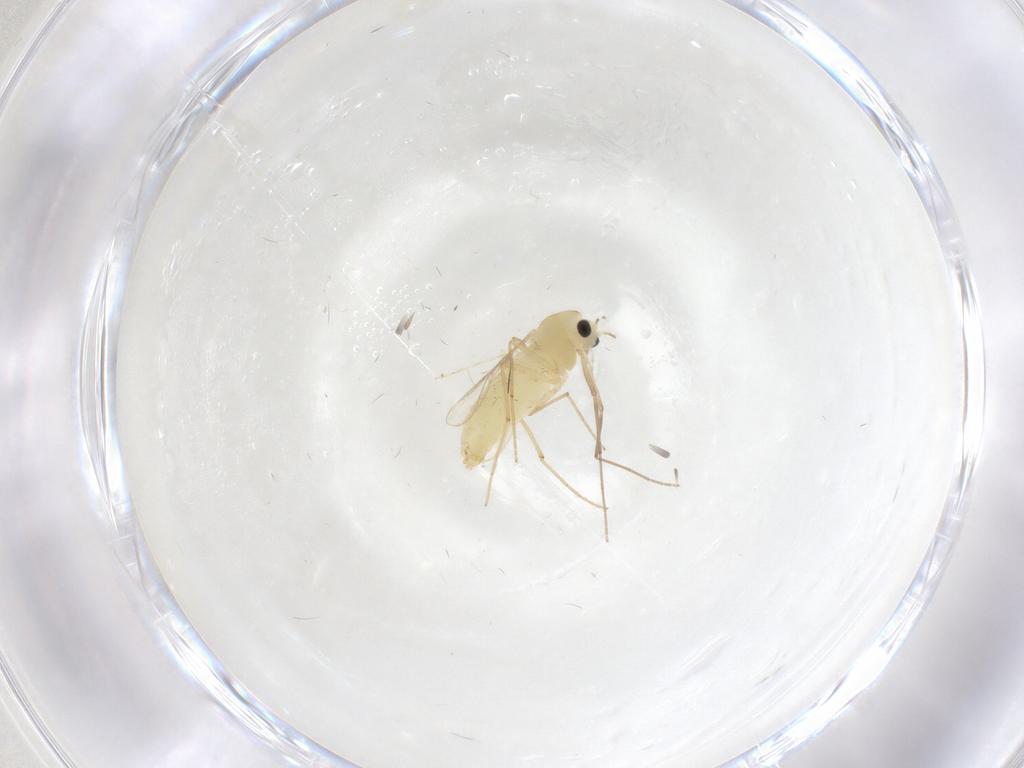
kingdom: Animalia
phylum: Arthropoda
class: Insecta
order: Diptera
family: Chironomidae
